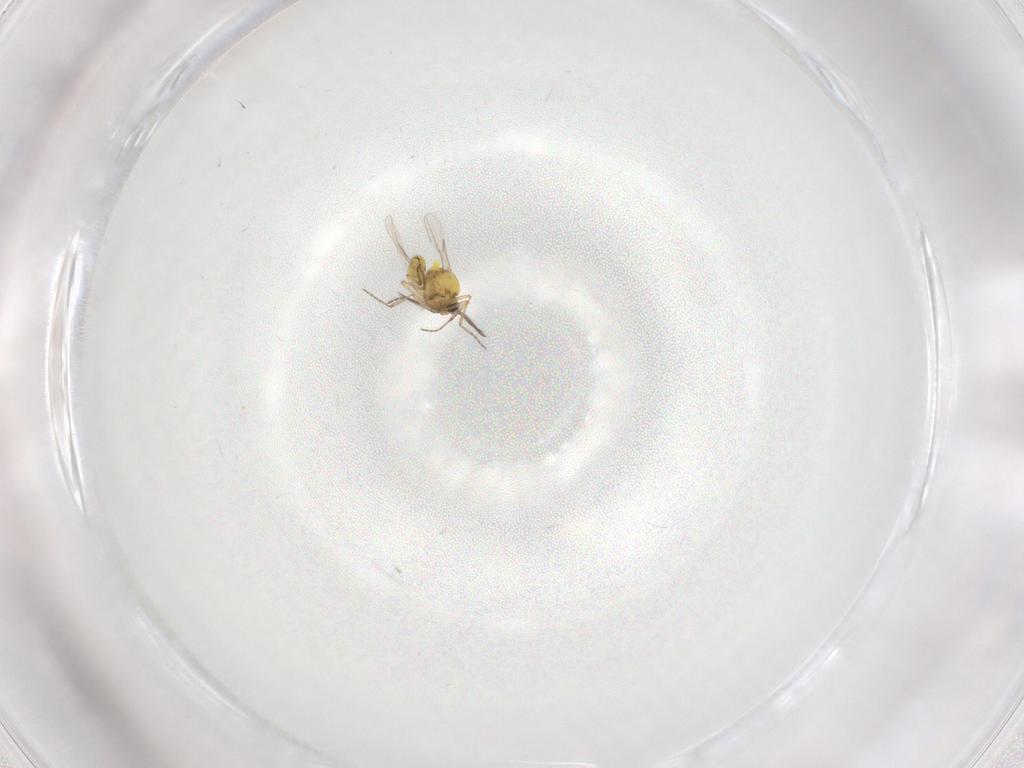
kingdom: Animalia
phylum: Arthropoda
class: Insecta
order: Diptera
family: Ceratopogonidae
